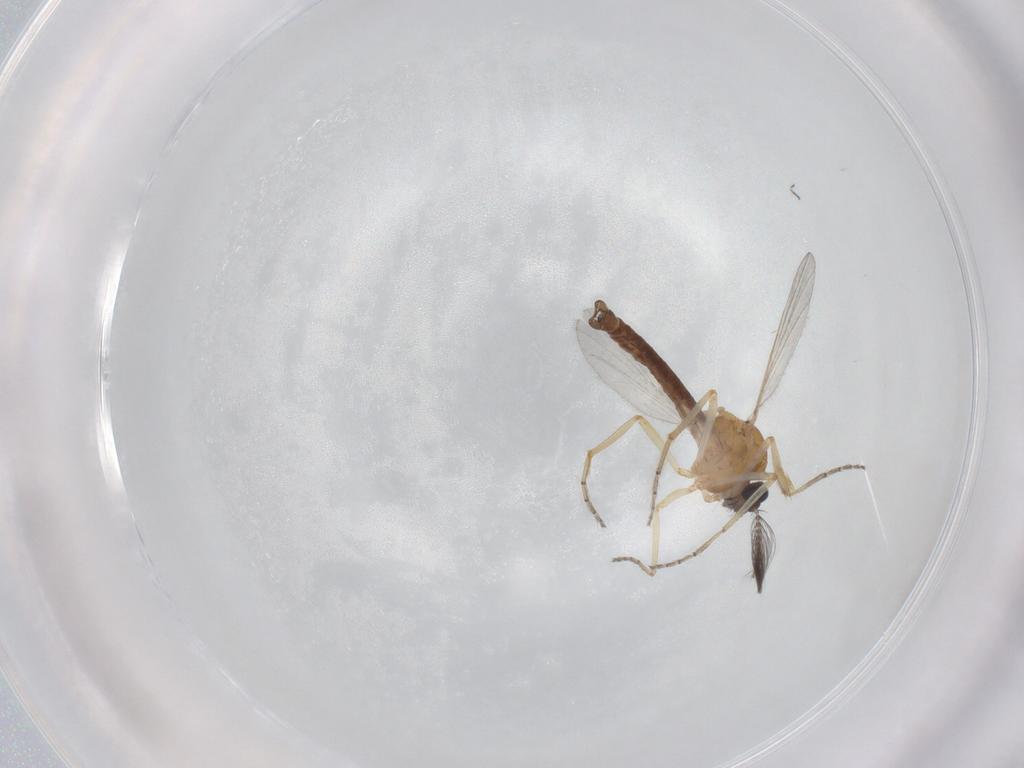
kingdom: Animalia
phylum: Arthropoda
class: Insecta
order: Diptera
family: Ceratopogonidae
